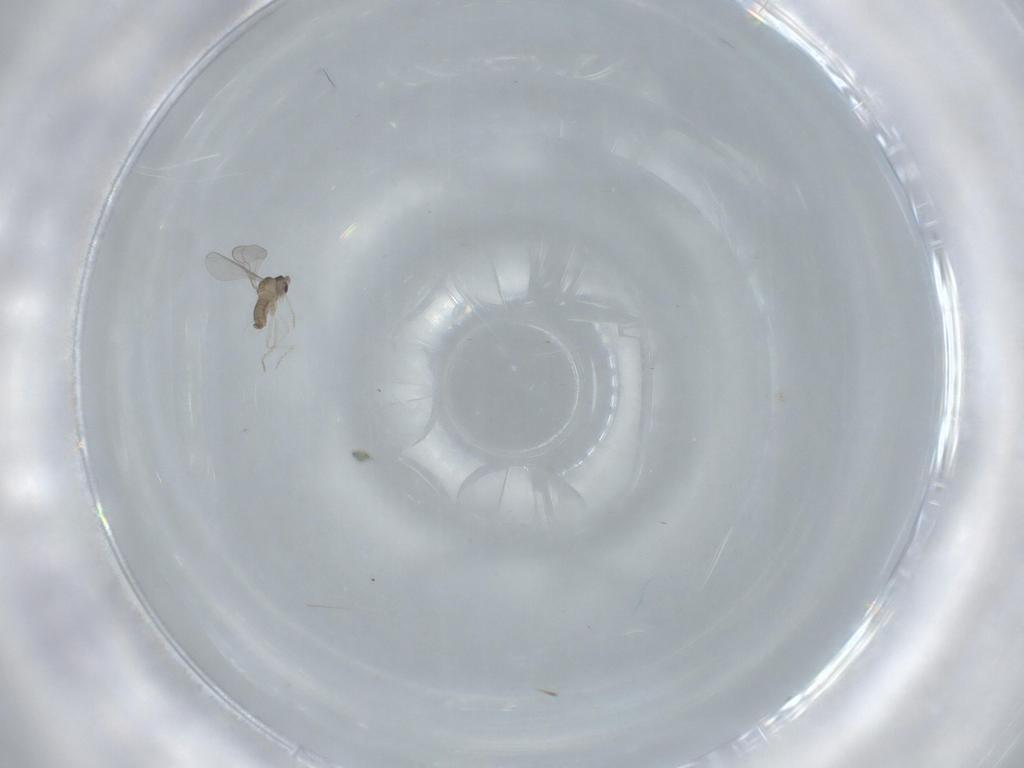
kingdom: Animalia
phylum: Arthropoda
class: Insecta
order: Diptera
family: Cecidomyiidae
